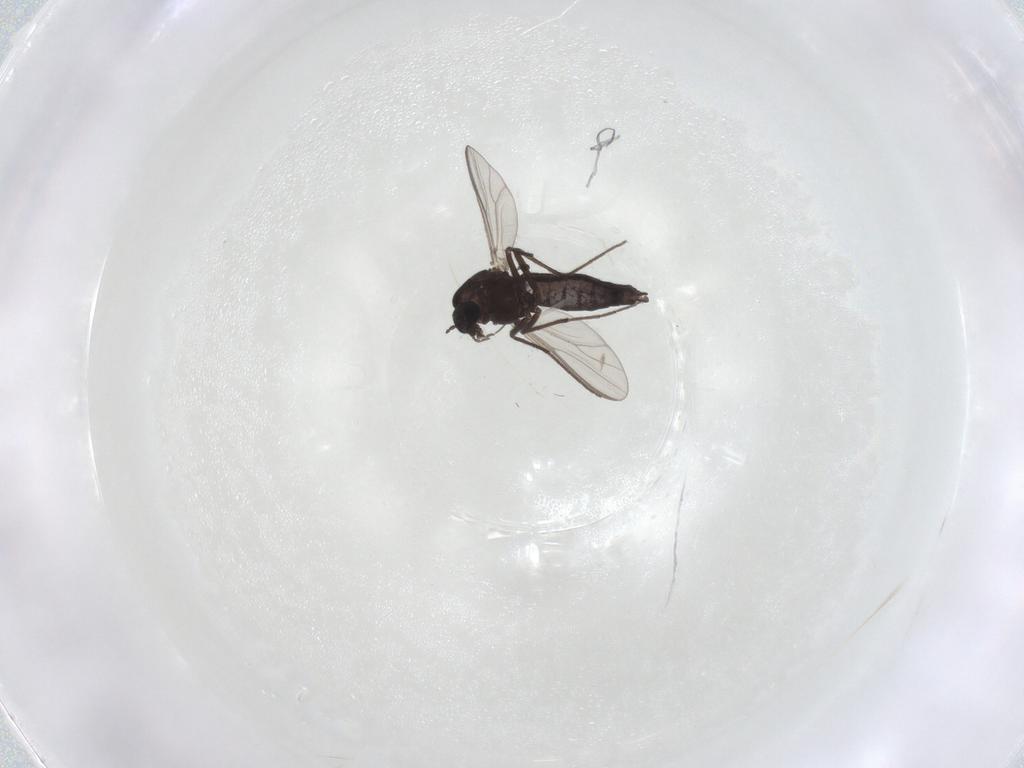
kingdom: Animalia
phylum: Arthropoda
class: Insecta
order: Diptera
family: Chironomidae
